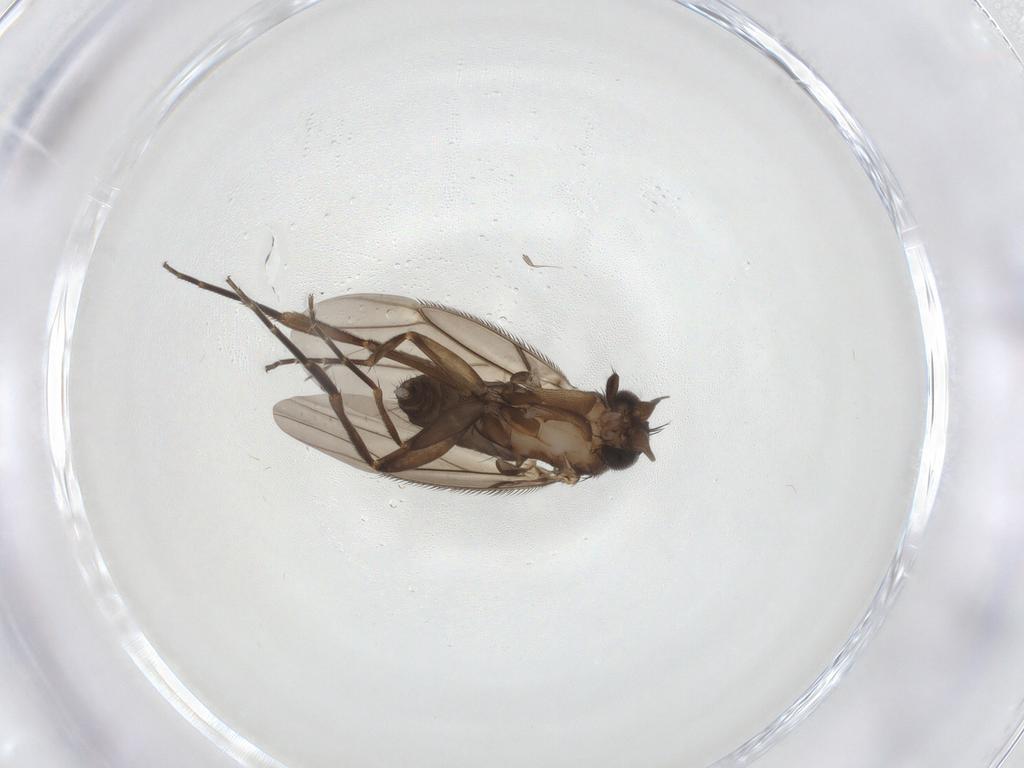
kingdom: Animalia
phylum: Arthropoda
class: Insecta
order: Diptera
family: Phoridae
